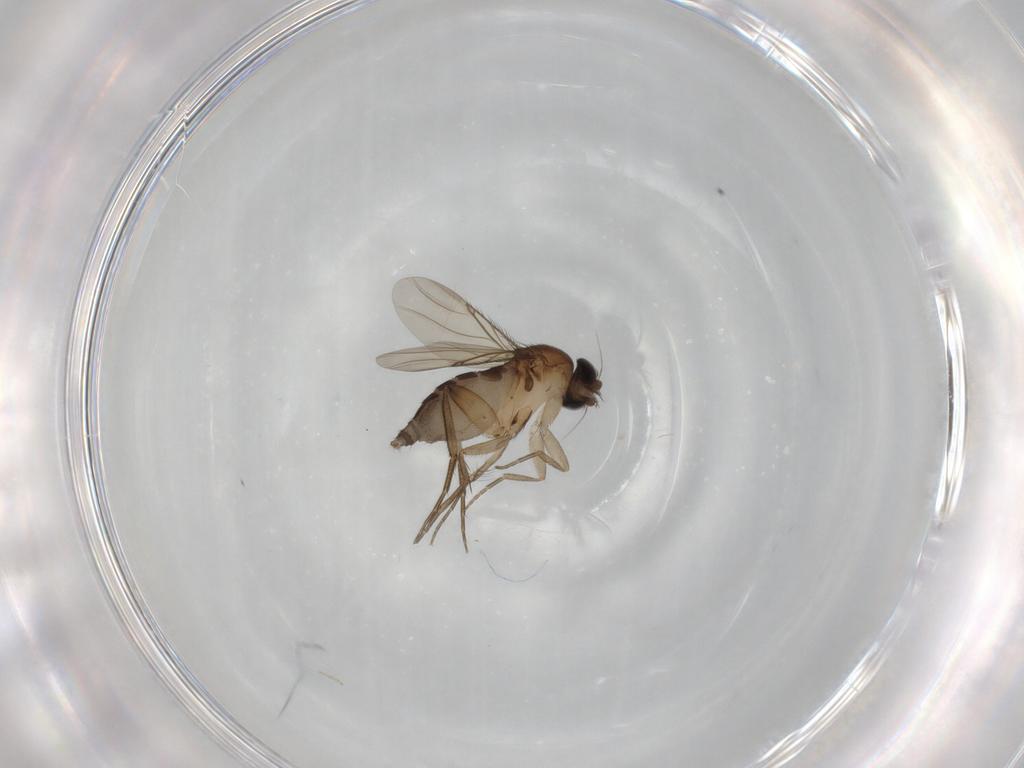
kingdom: Animalia
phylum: Arthropoda
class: Insecta
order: Diptera
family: Phoridae
